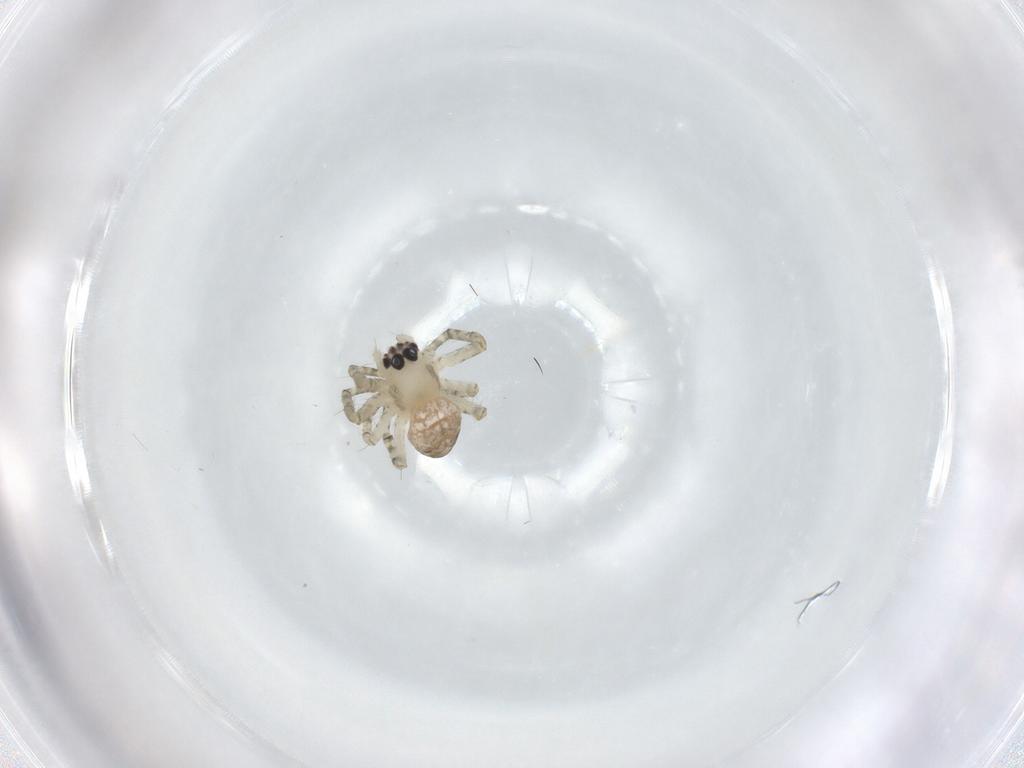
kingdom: Animalia
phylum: Arthropoda
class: Arachnida
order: Araneae
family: Araneidae
